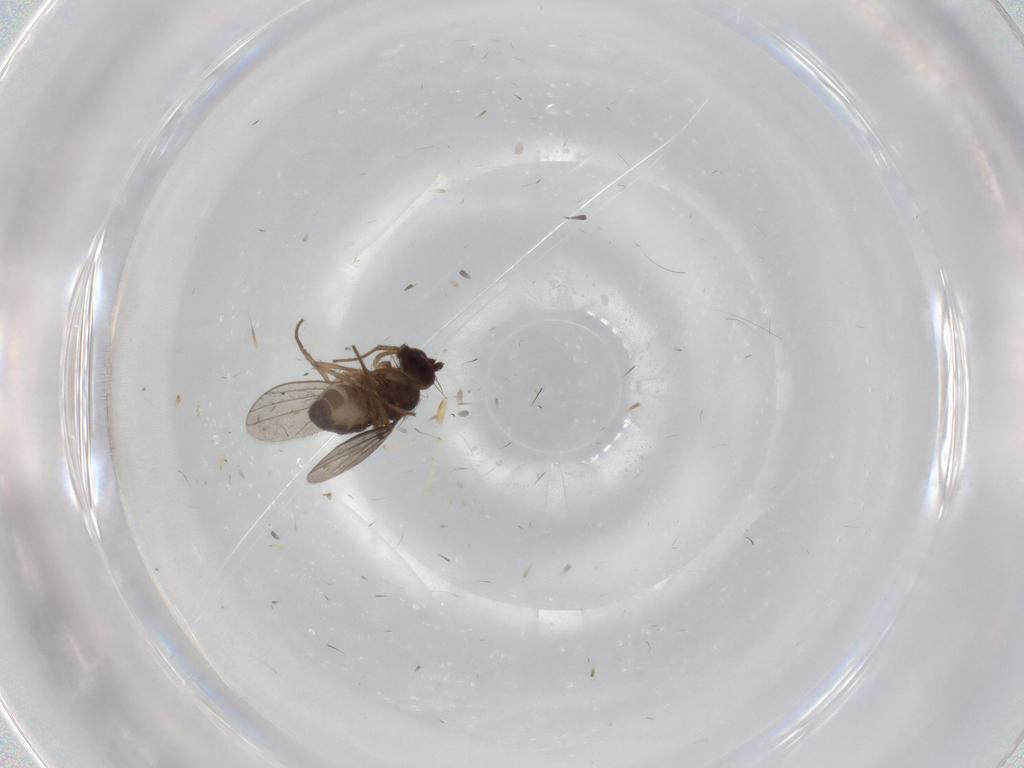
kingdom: Animalia
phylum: Arthropoda
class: Insecta
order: Diptera
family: Dolichopodidae
